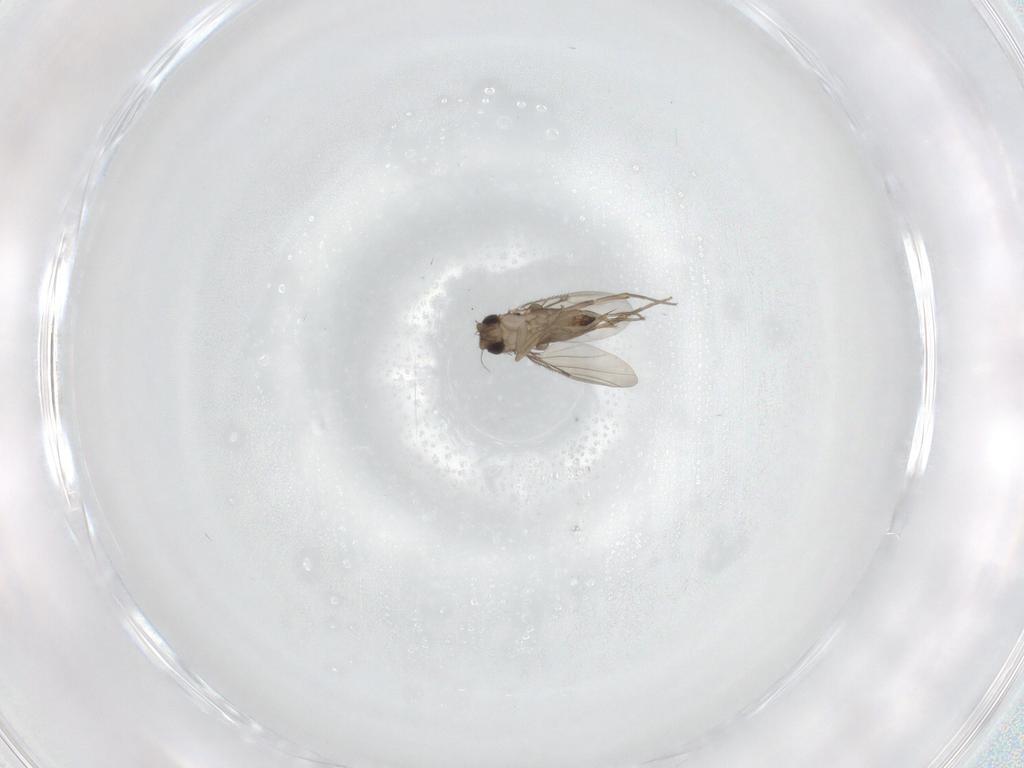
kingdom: Animalia
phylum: Arthropoda
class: Insecta
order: Diptera
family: Phoridae
